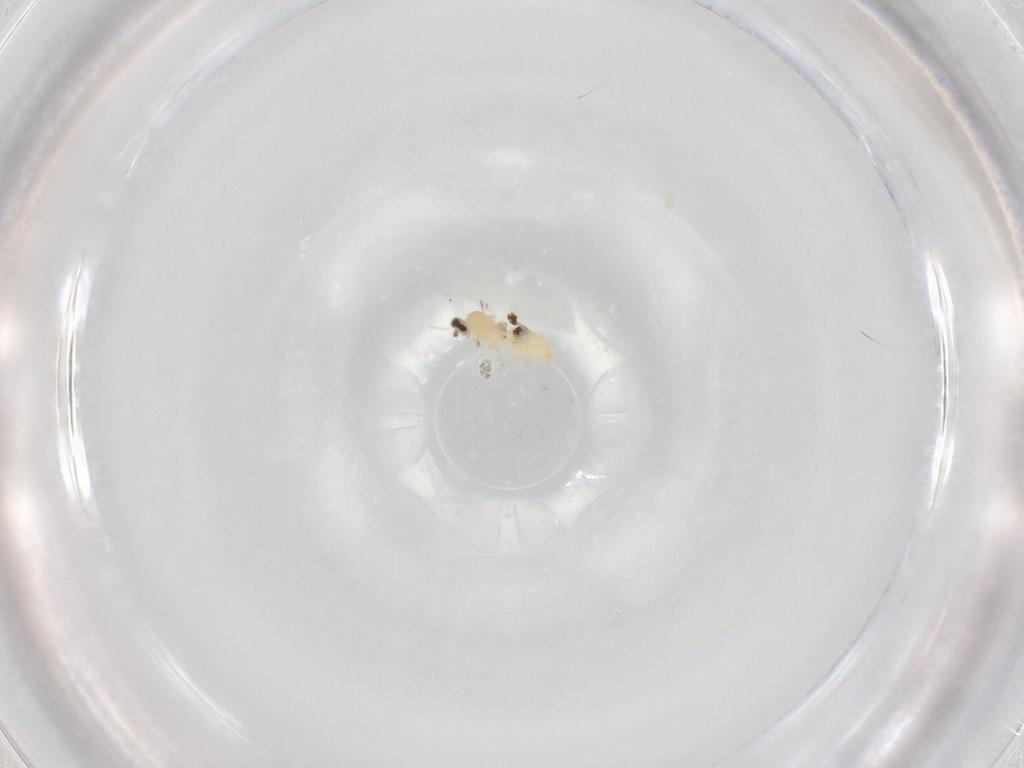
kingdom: Animalia
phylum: Arthropoda
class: Insecta
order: Diptera
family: Cecidomyiidae
